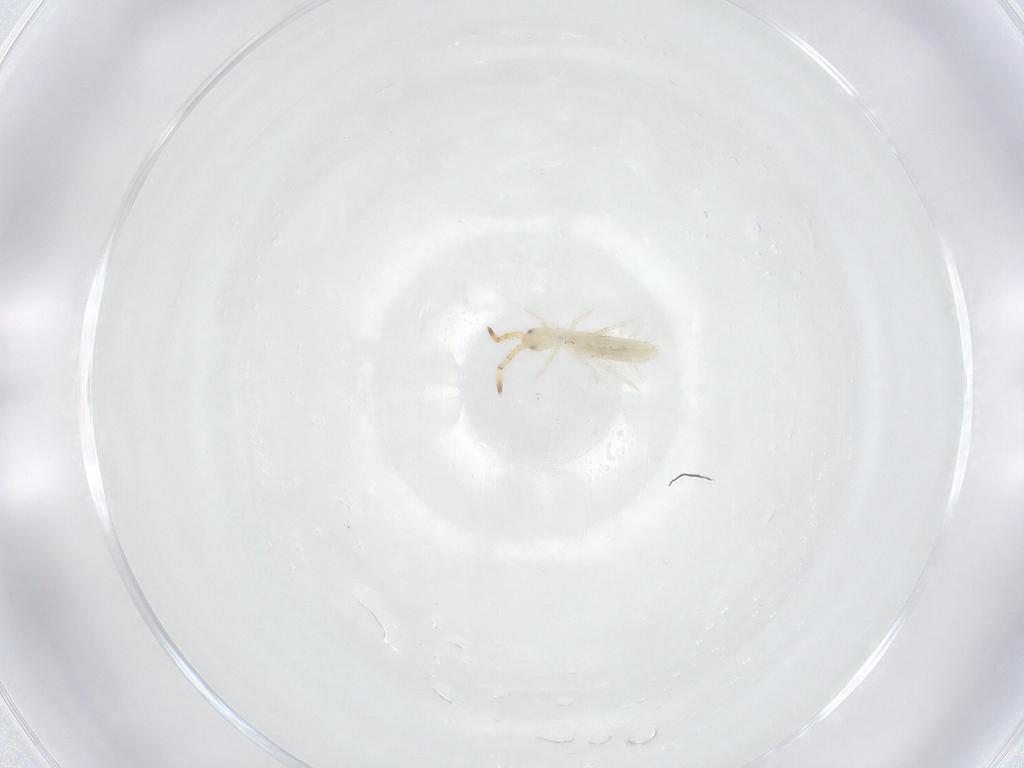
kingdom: Animalia
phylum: Arthropoda
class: Collembola
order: Entomobryomorpha
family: Entomobryidae
